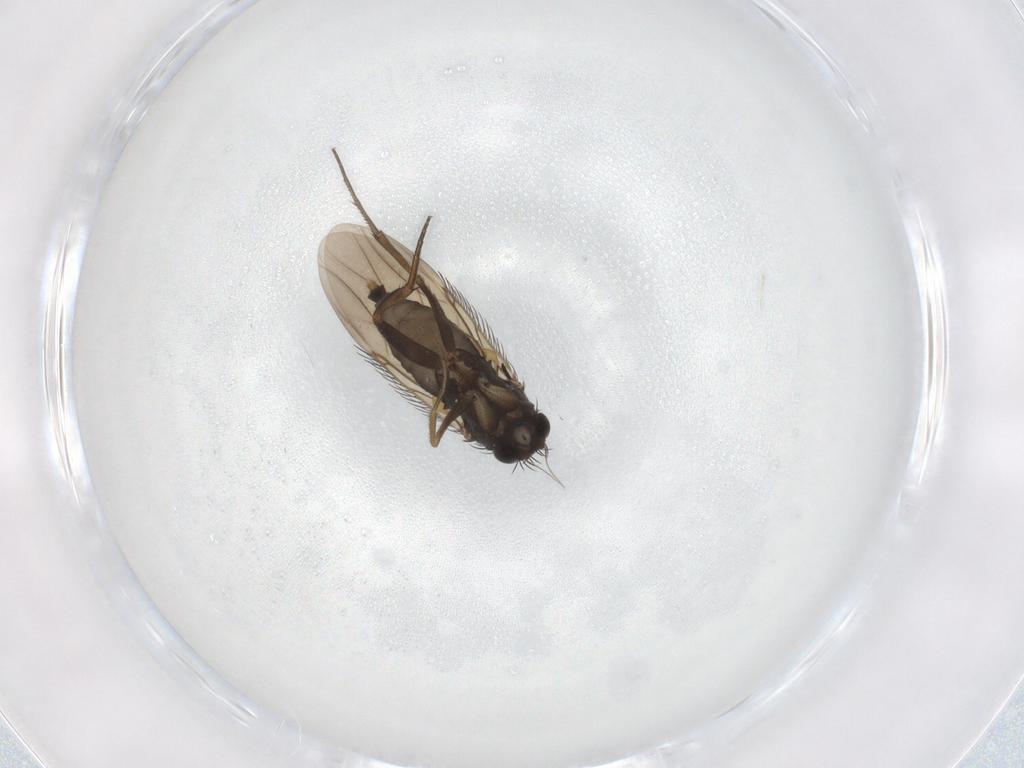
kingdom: Animalia
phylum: Arthropoda
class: Insecta
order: Diptera
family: Phoridae
